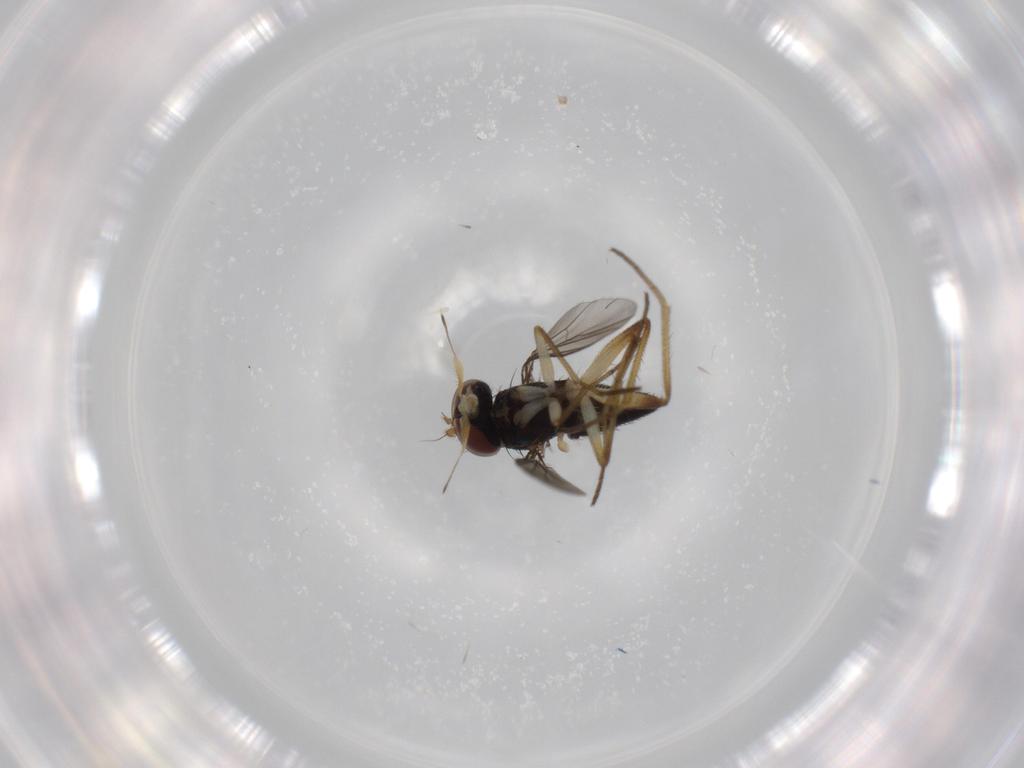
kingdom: Animalia
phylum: Arthropoda
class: Insecta
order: Diptera
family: Dolichopodidae
